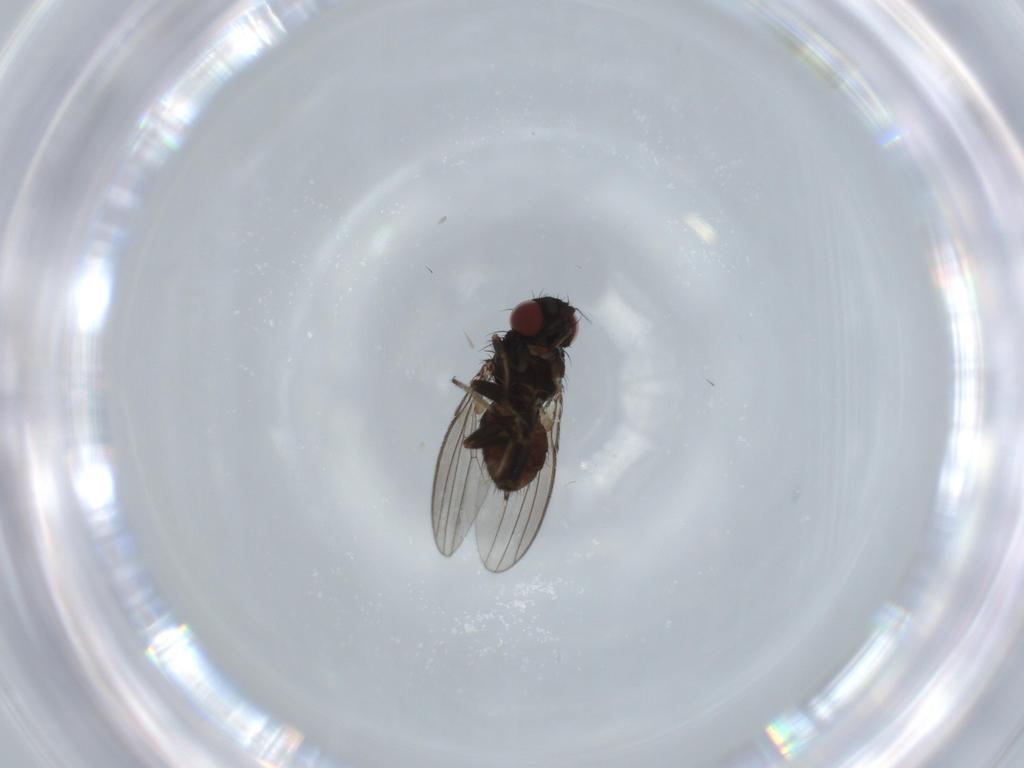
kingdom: Animalia
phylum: Arthropoda
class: Insecta
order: Diptera
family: Milichiidae
